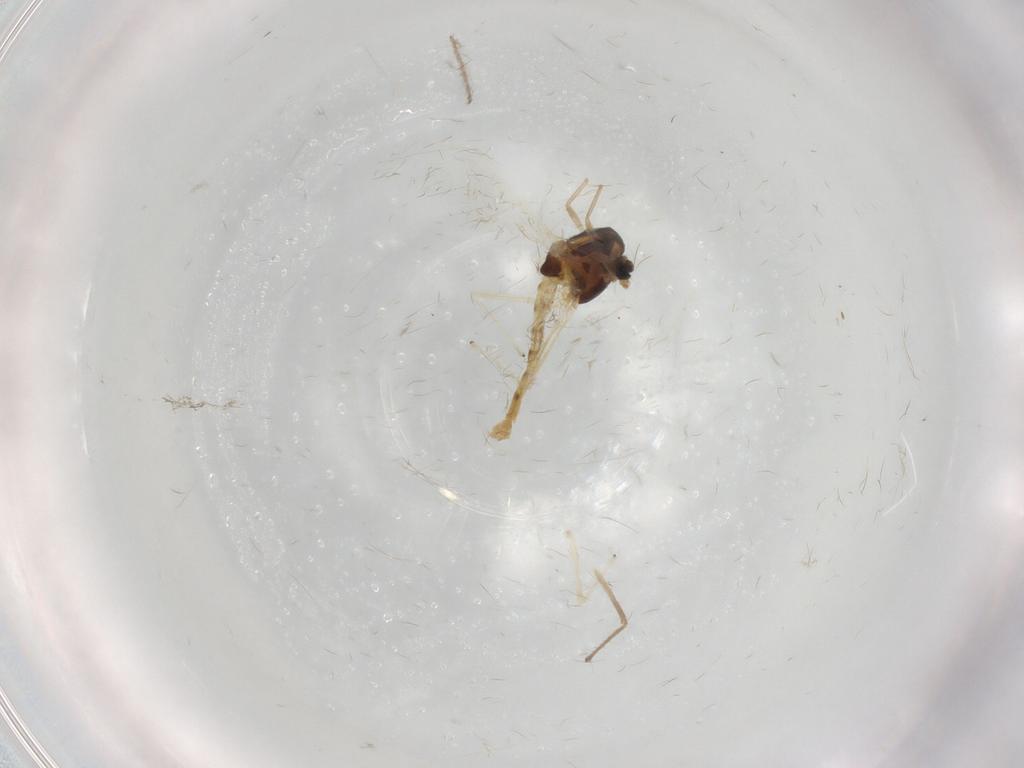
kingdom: Animalia
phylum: Arthropoda
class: Insecta
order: Diptera
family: Chironomidae
